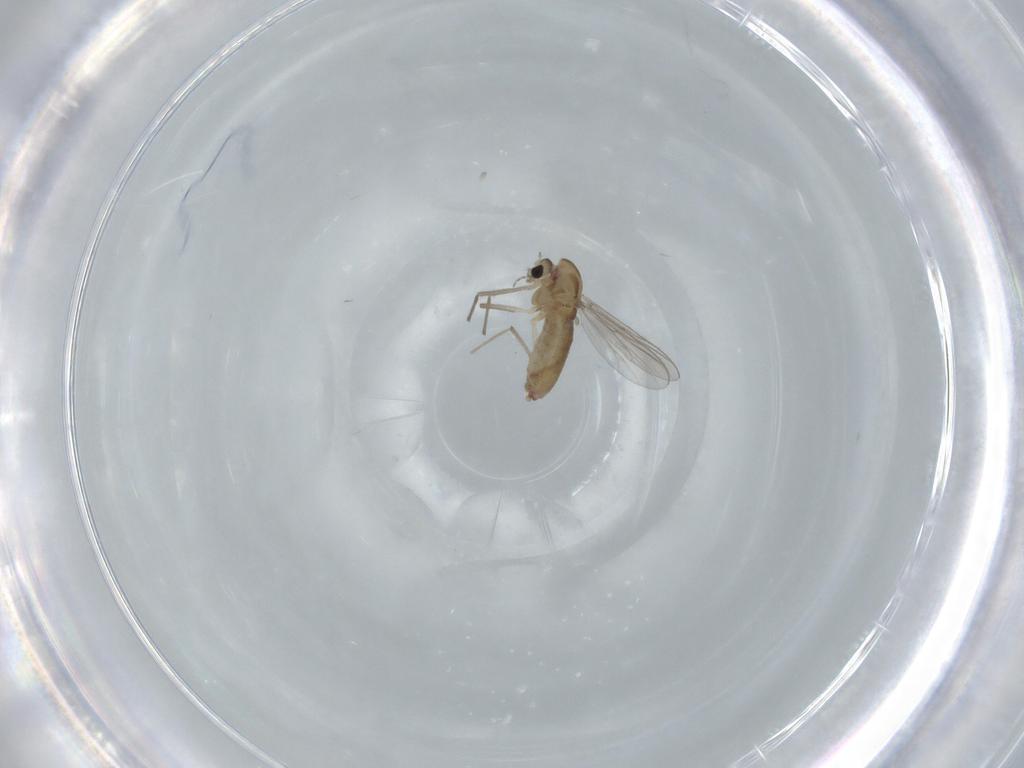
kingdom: Animalia
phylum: Arthropoda
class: Insecta
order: Diptera
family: Chironomidae
